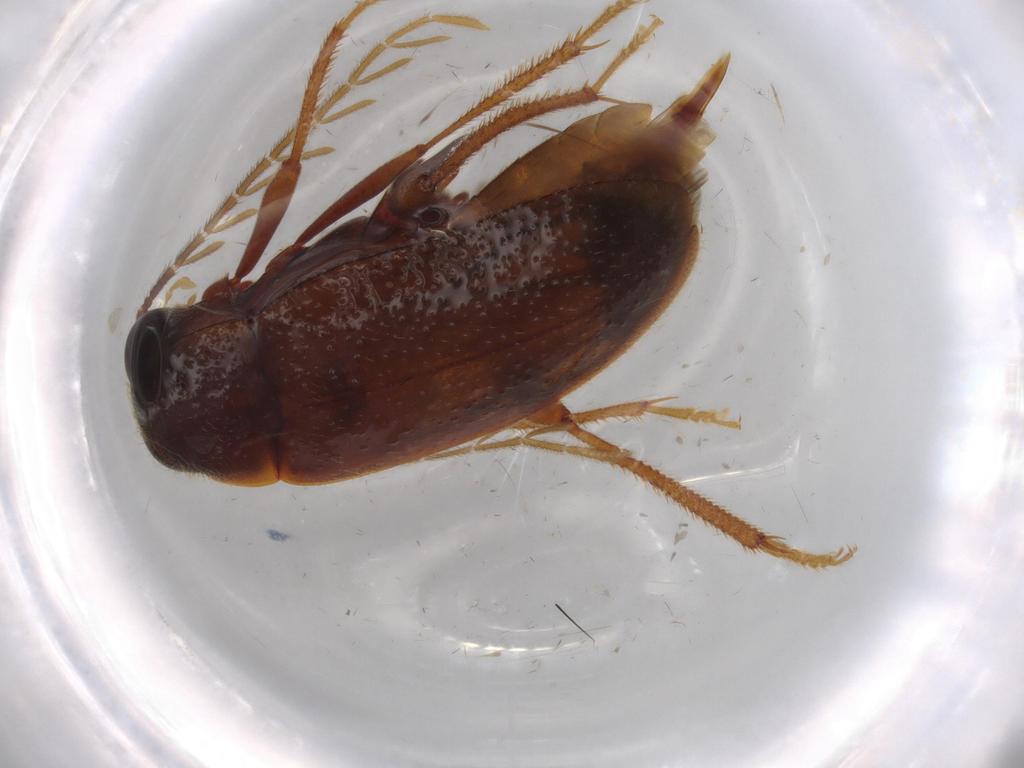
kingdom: Animalia
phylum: Arthropoda
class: Insecta
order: Coleoptera
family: Ptilodactylidae
